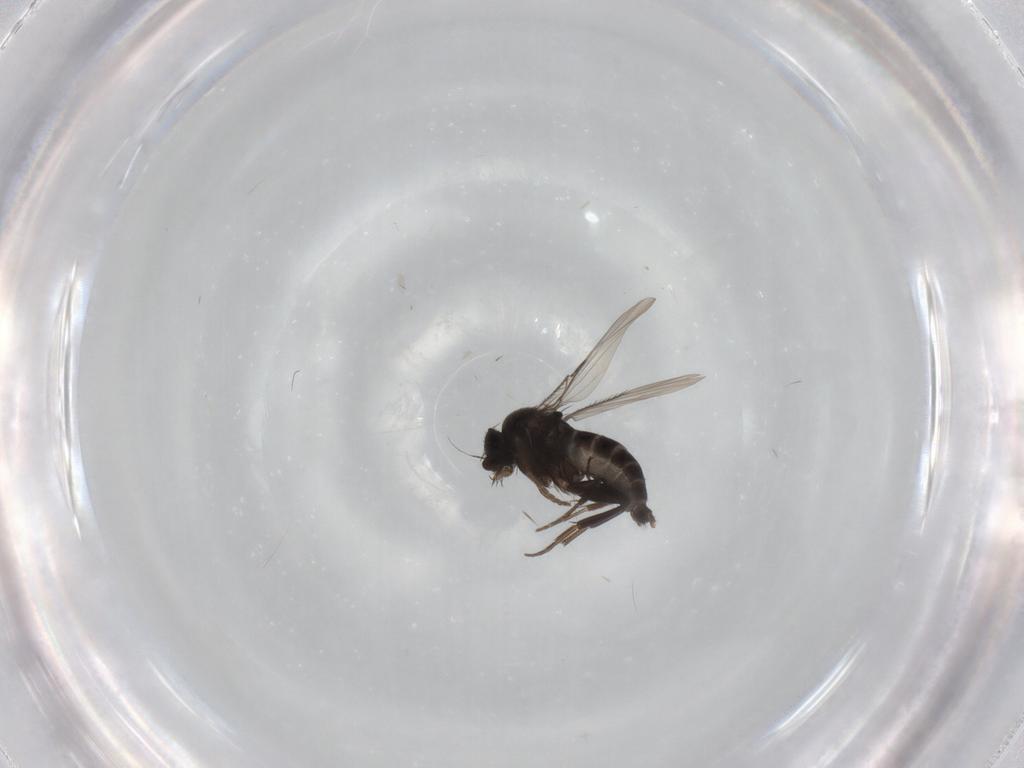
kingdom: Animalia
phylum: Arthropoda
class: Insecta
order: Diptera
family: Phoridae
